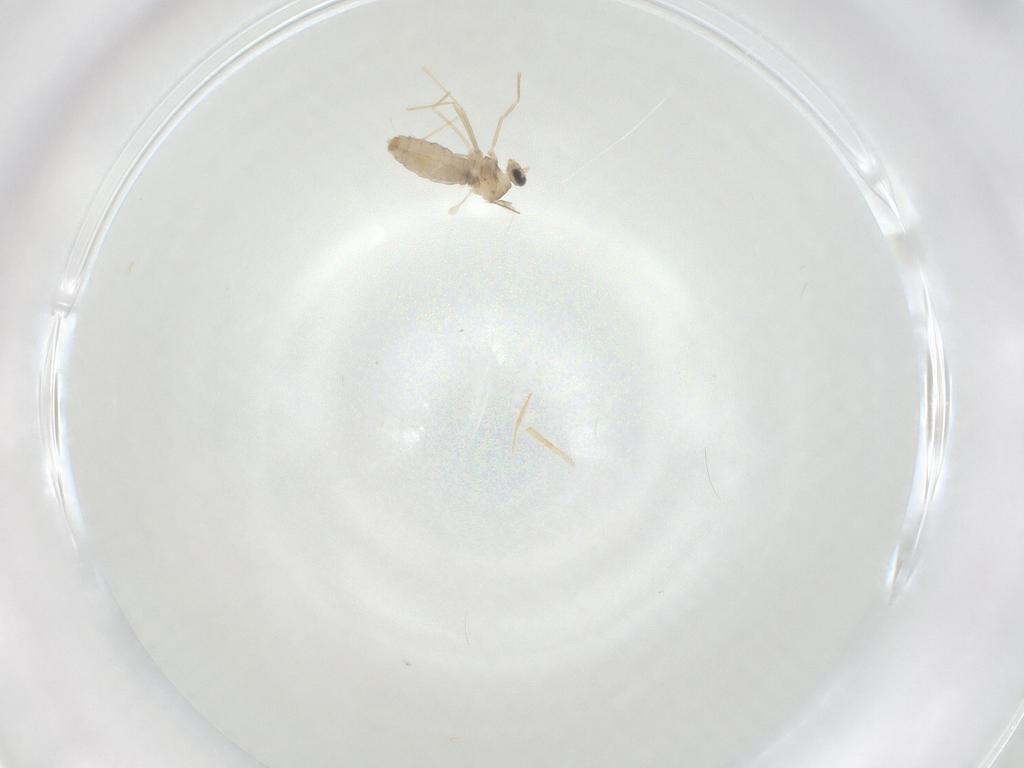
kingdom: Animalia
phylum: Arthropoda
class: Insecta
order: Diptera
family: Cecidomyiidae
